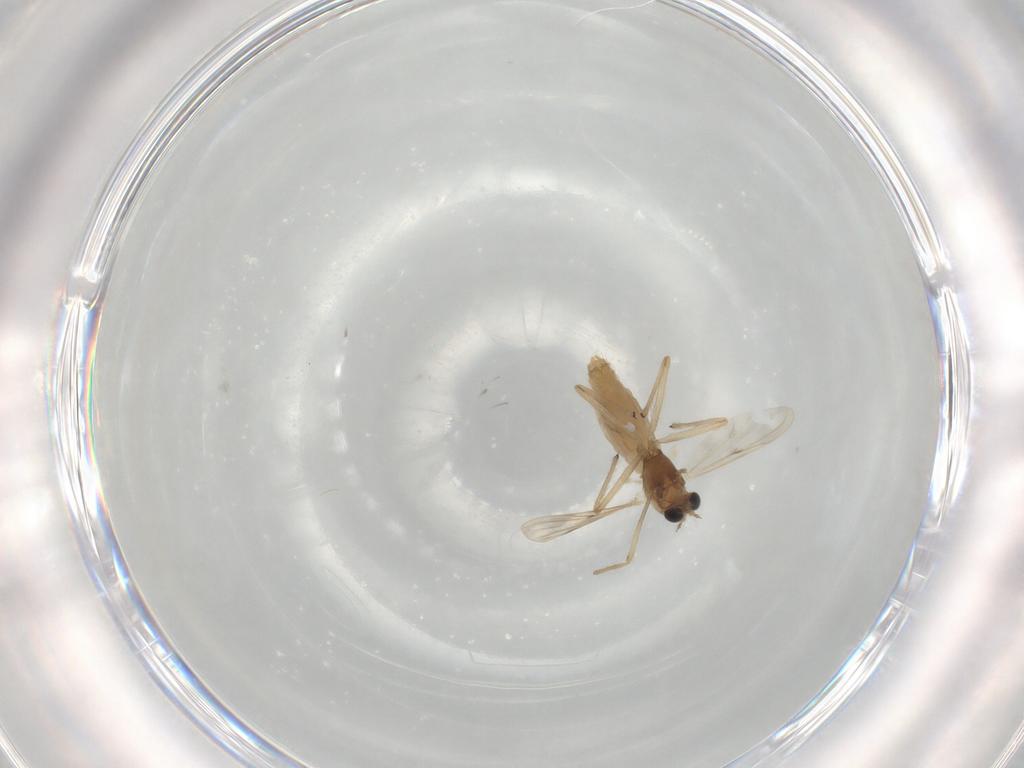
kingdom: Animalia
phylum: Arthropoda
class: Insecta
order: Diptera
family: Chironomidae
